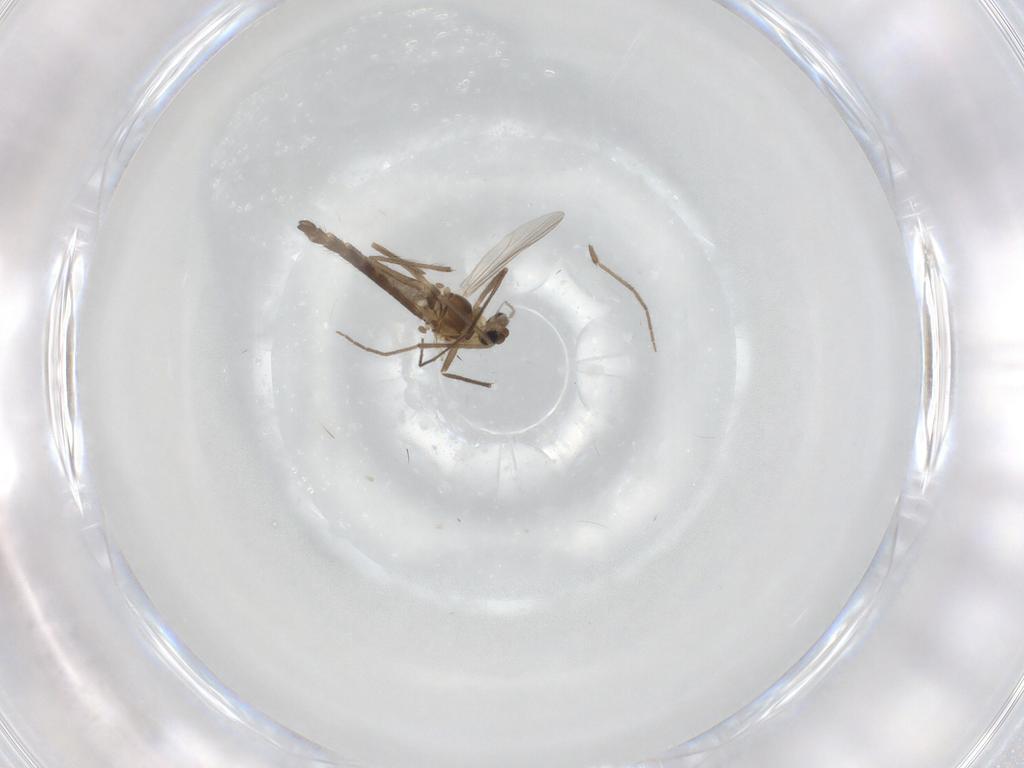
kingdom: Animalia
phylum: Arthropoda
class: Insecta
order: Diptera
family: Chironomidae
